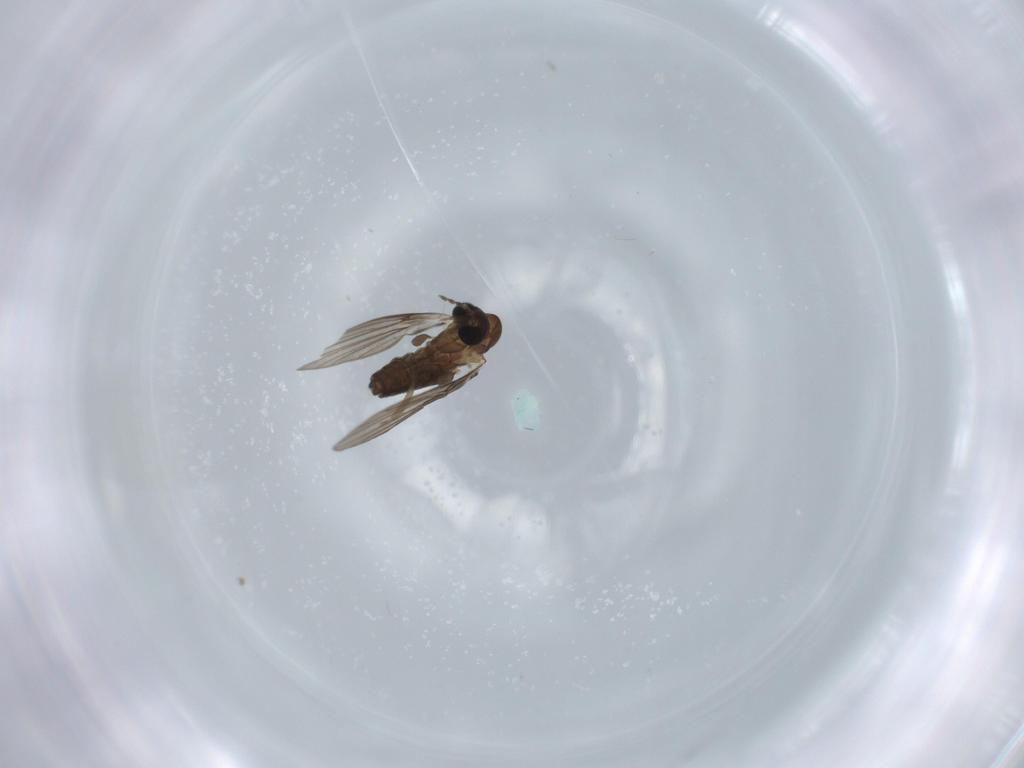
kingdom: Animalia
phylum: Arthropoda
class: Insecta
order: Diptera
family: Psychodidae
